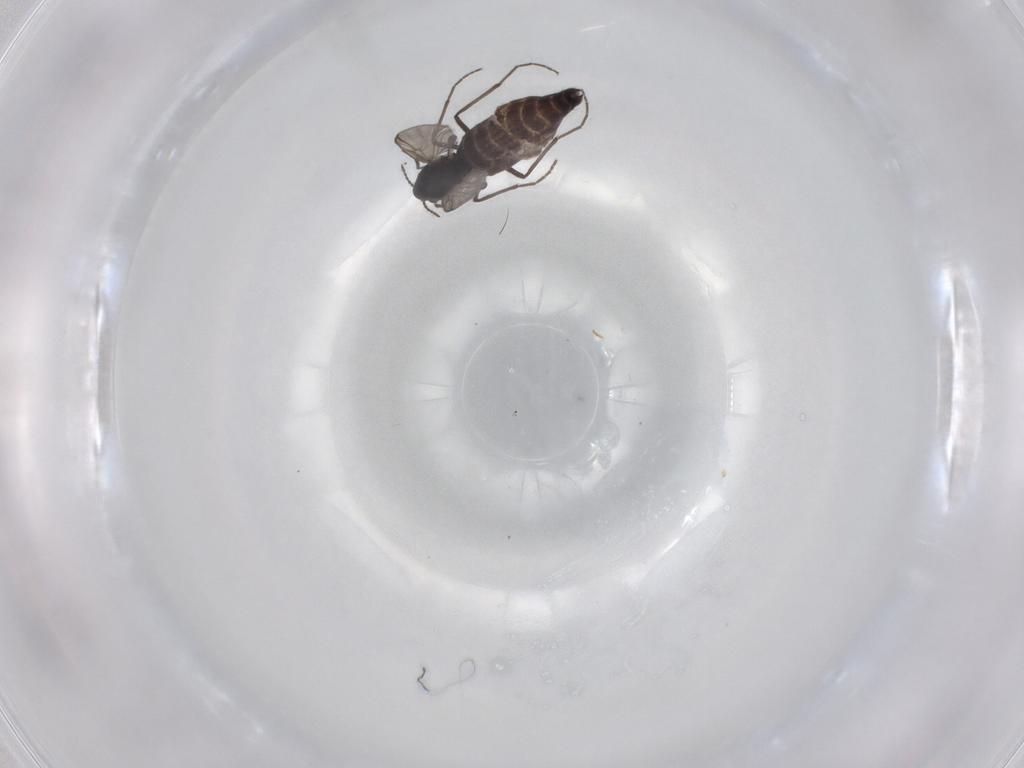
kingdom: Animalia
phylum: Arthropoda
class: Insecta
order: Diptera
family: Chironomidae
